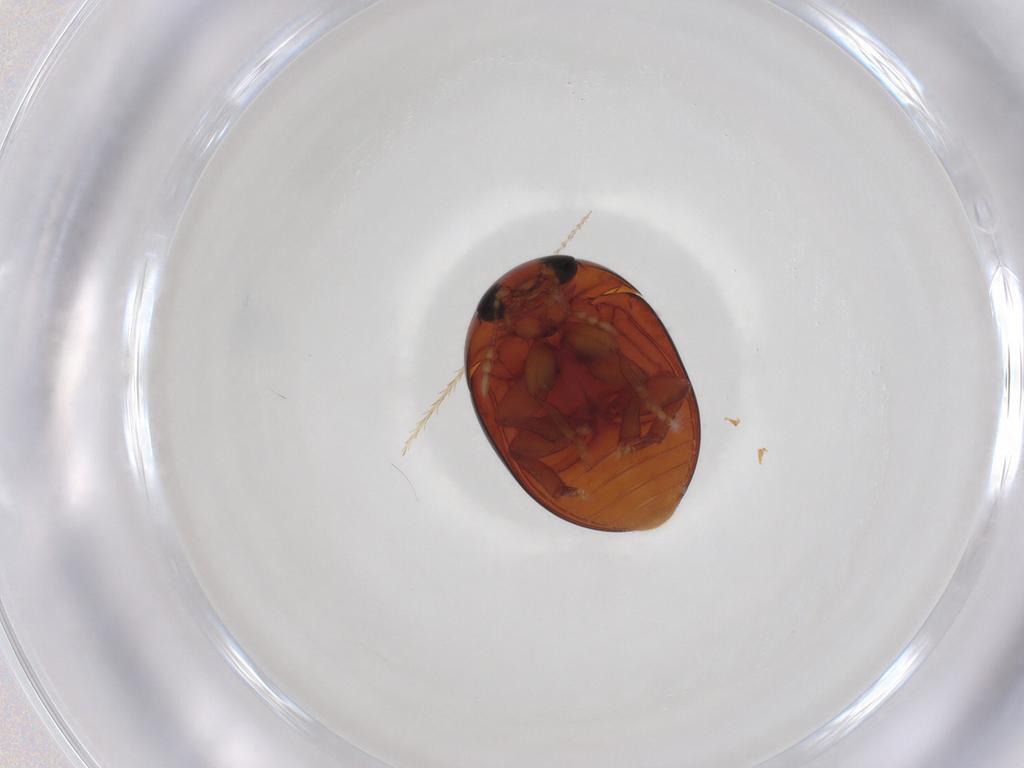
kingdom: Animalia
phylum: Arthropoda
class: Insecta
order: Coleoptera
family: Phalacridae
